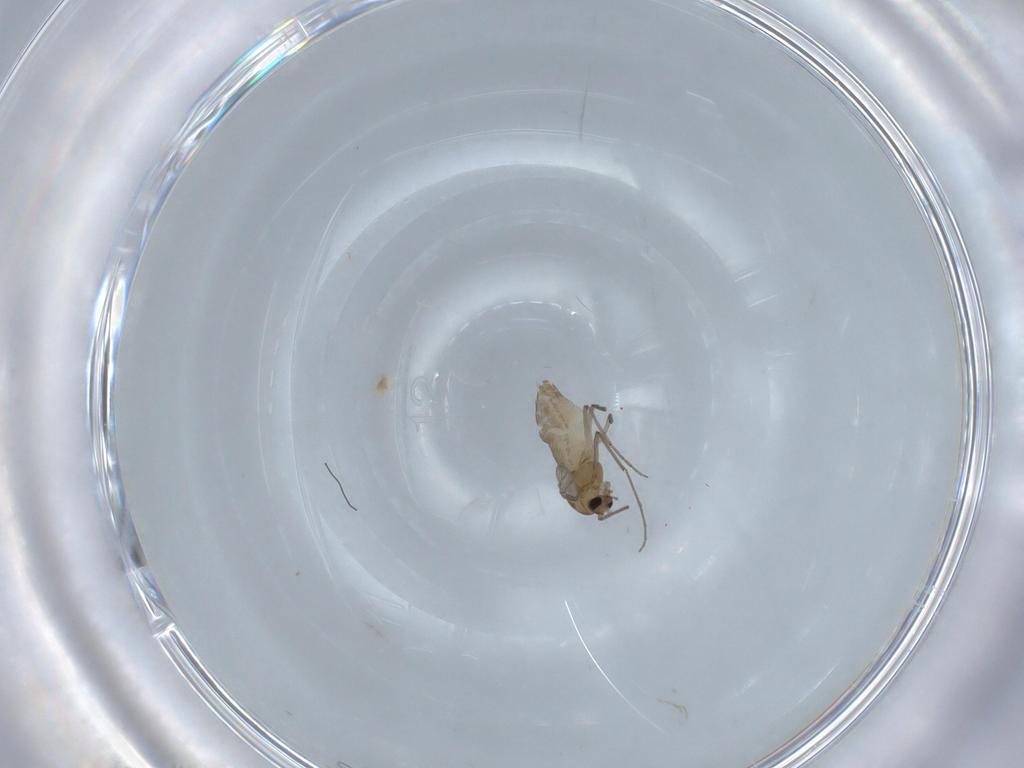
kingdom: Animalia
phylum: Arthropoda
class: Insecta
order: Diptera
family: Chironomidae
